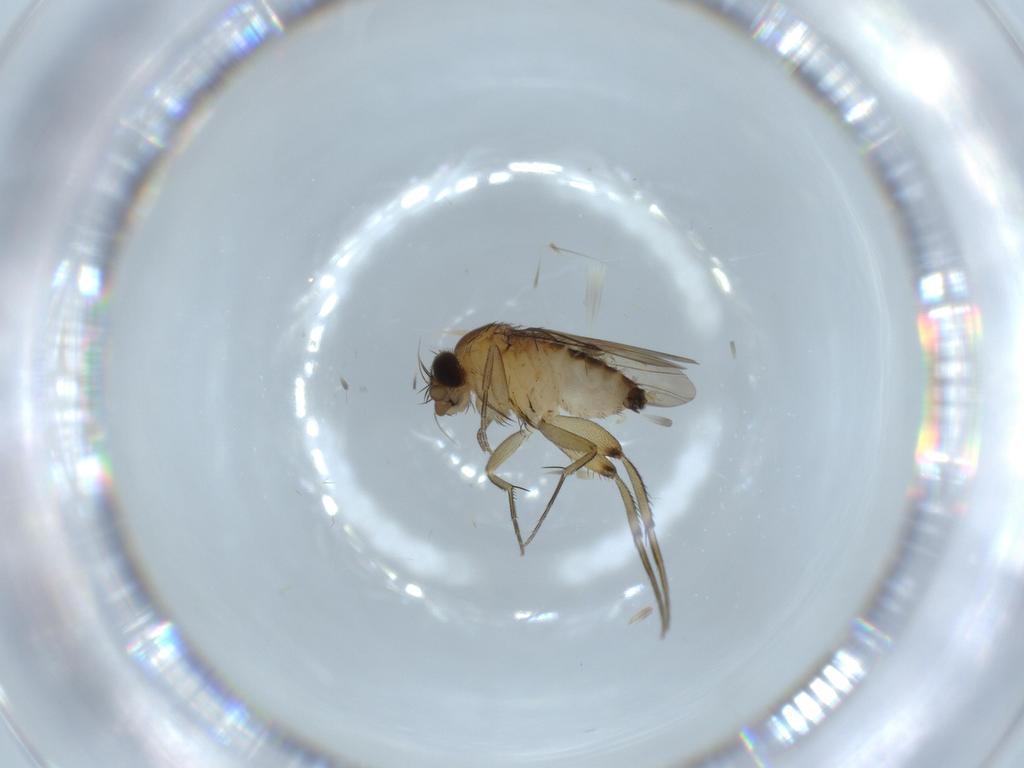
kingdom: Animalia
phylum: Arthropoda
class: Insecta
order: Diptera
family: Phoridae
